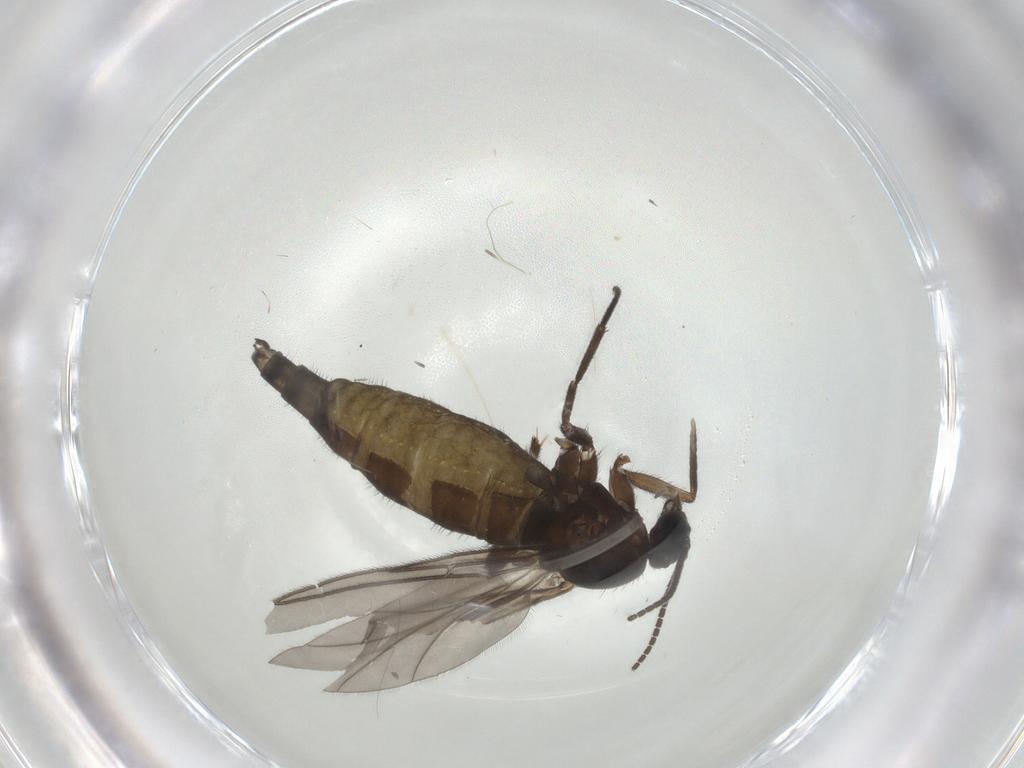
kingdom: Animalia
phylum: Arthropoda
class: Insecta
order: Diptera
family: Sciaridae
